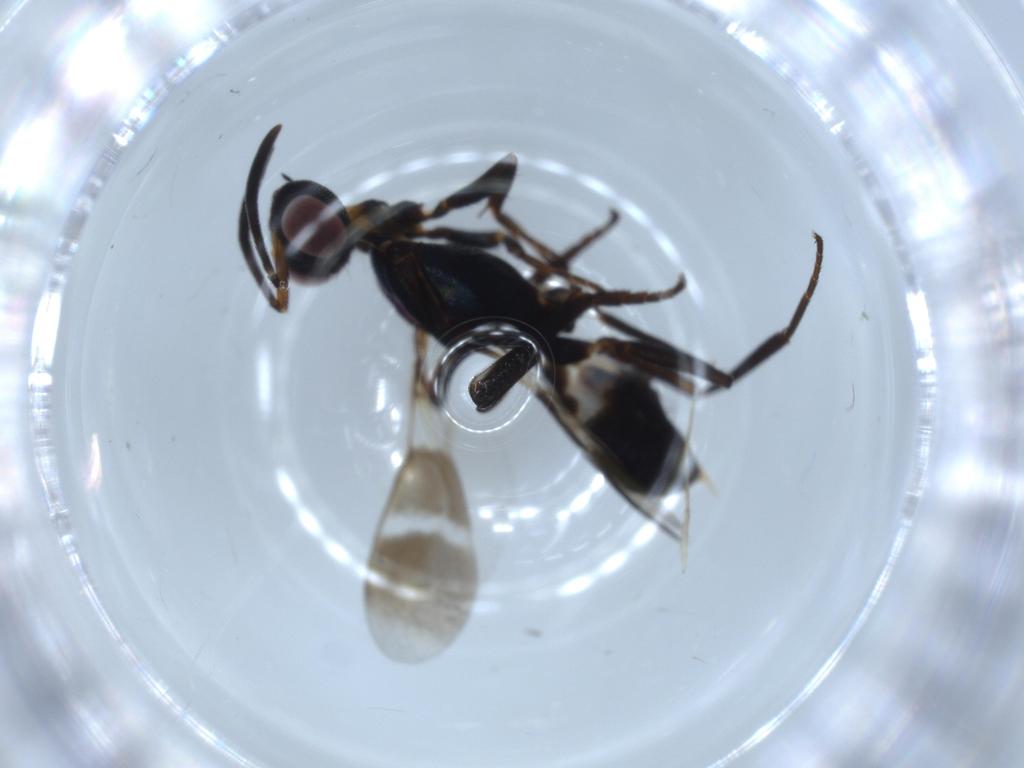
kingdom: Animalia
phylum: Arthropoda
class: Insecta
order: Hymenoptera
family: Eupelmidae
